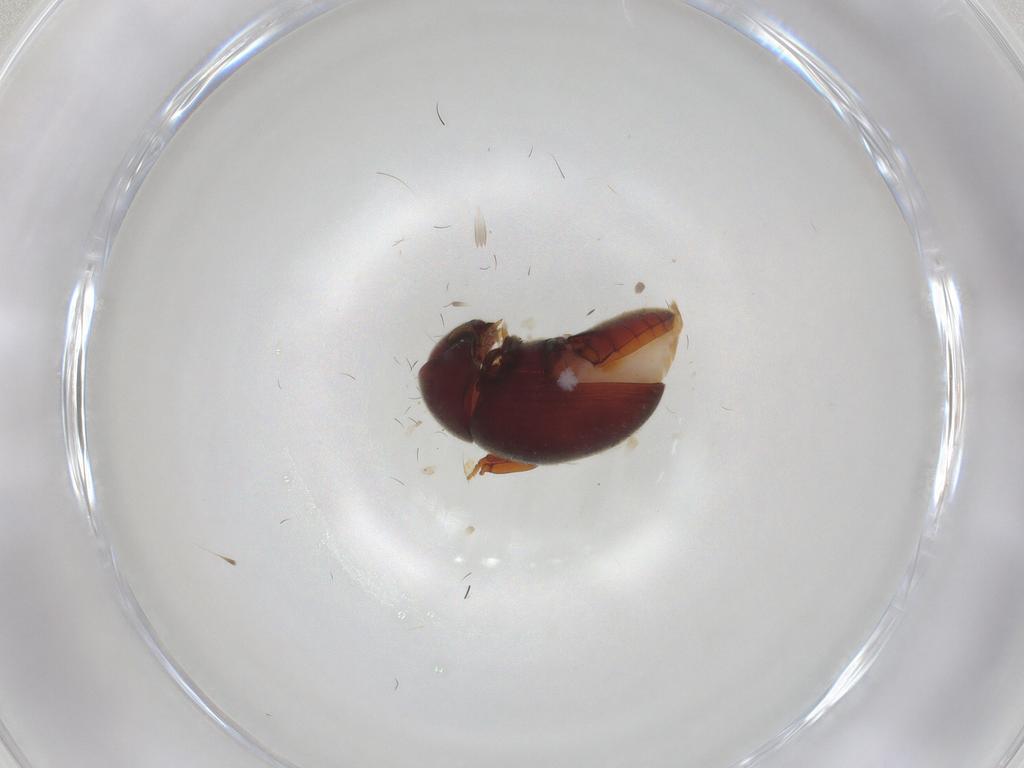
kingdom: Animalia
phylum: Arthropoda
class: Insecta
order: Coleoptera
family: Ptinidae
